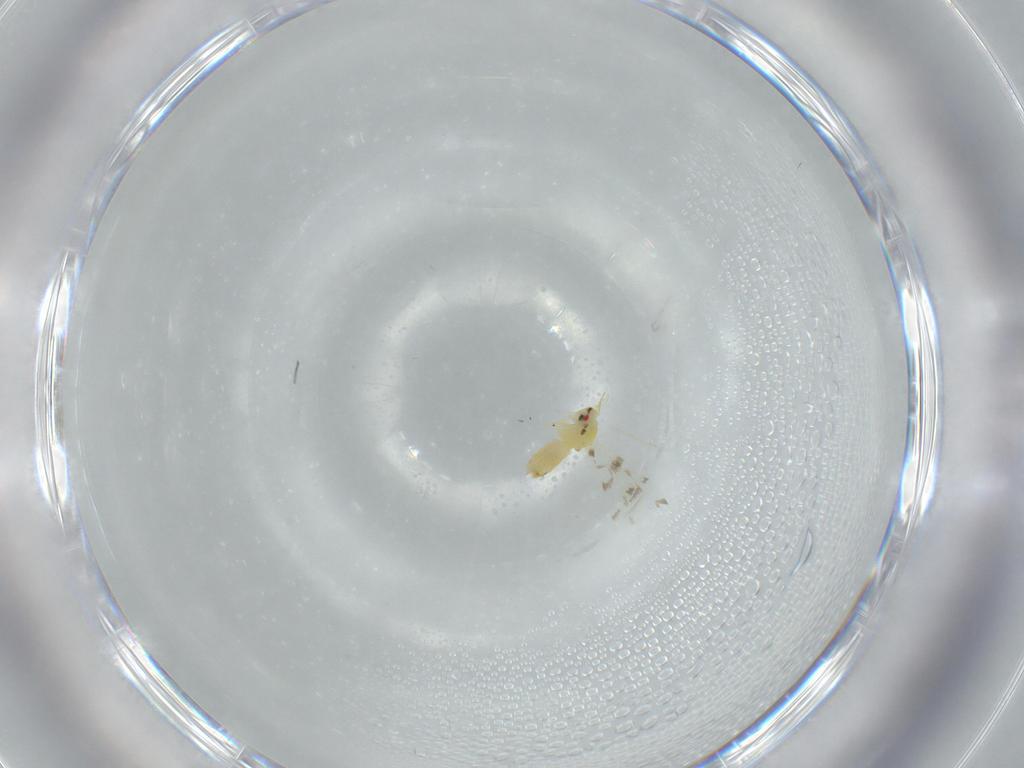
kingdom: Animalia
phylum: Arthropoda
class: Insecta
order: Hemiptera
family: Aleyrodidae
